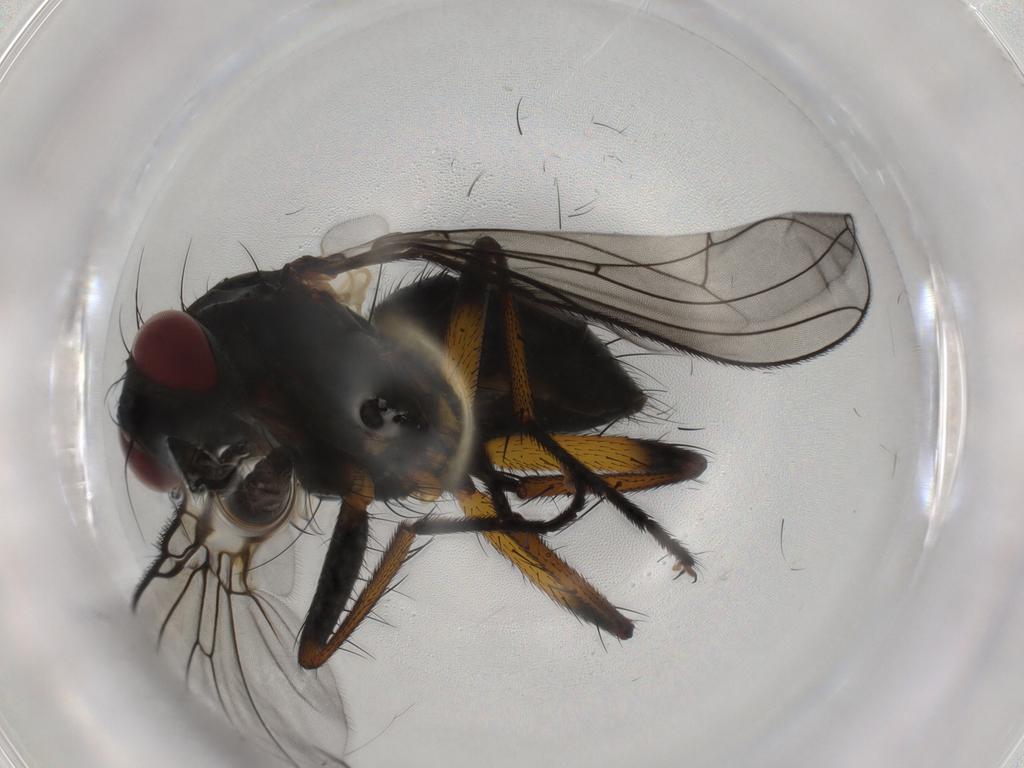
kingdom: Animalia
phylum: Arthropoda
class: Insecta
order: Diptera
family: Muscidae
